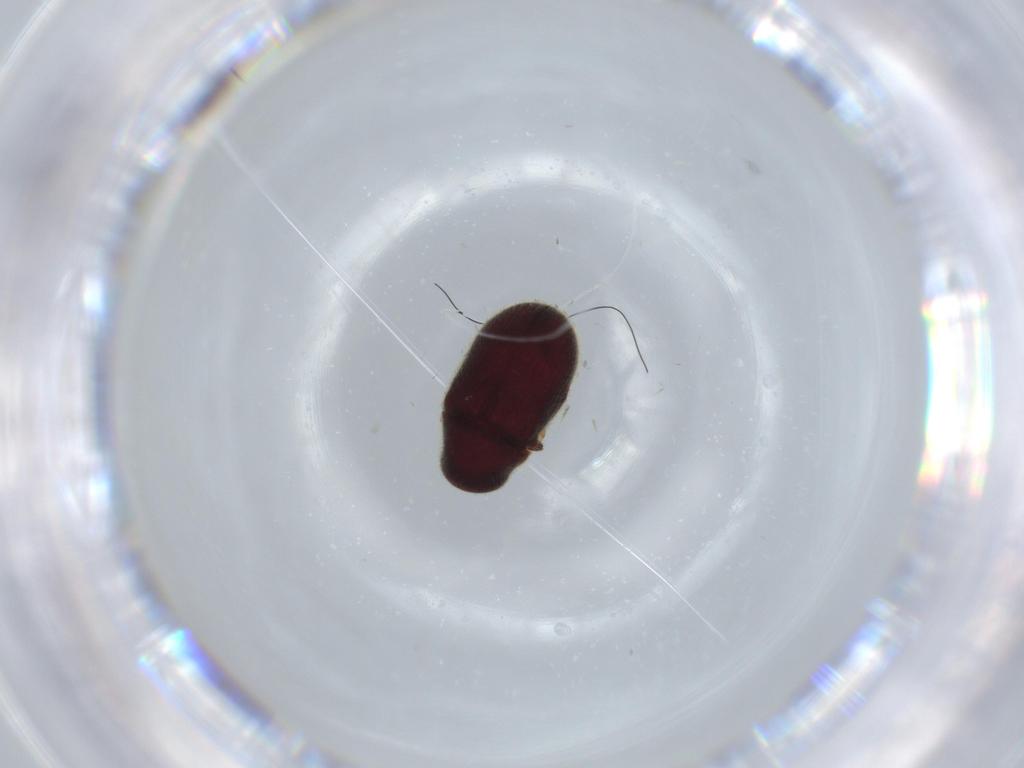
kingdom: Animalia
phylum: Arthropoda
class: Insecta
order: Coleoptera
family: Ptinidae
